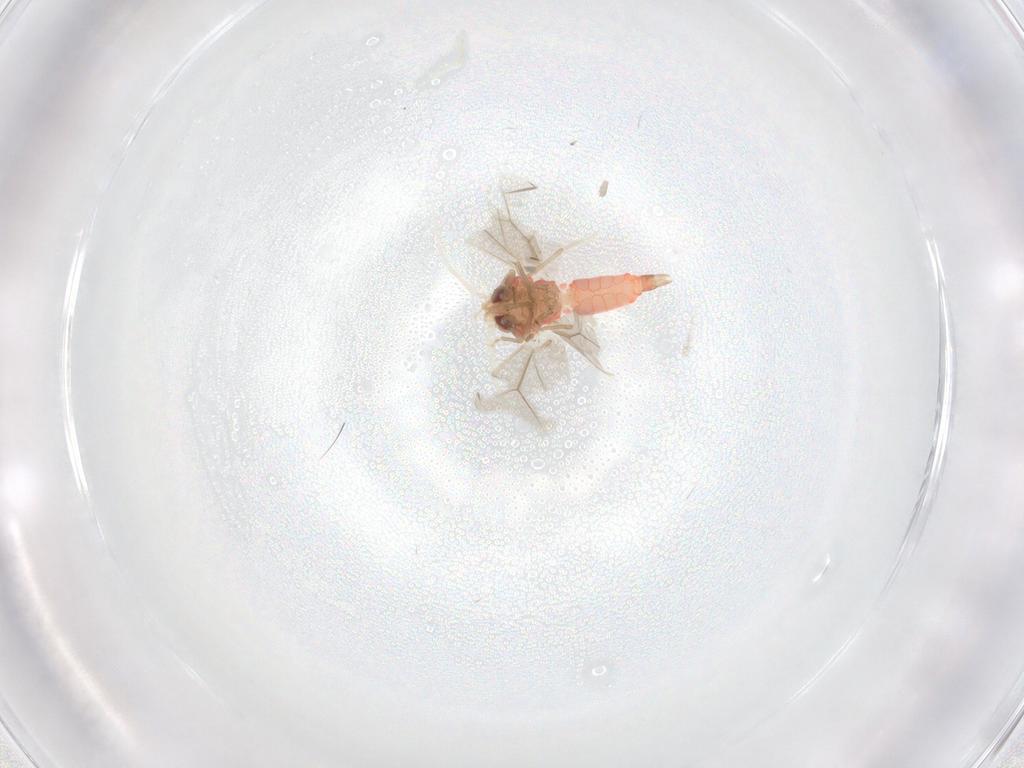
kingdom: Animalia
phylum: Arthropoda
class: Insecta
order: Hemiptera
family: Aleyrodidae
